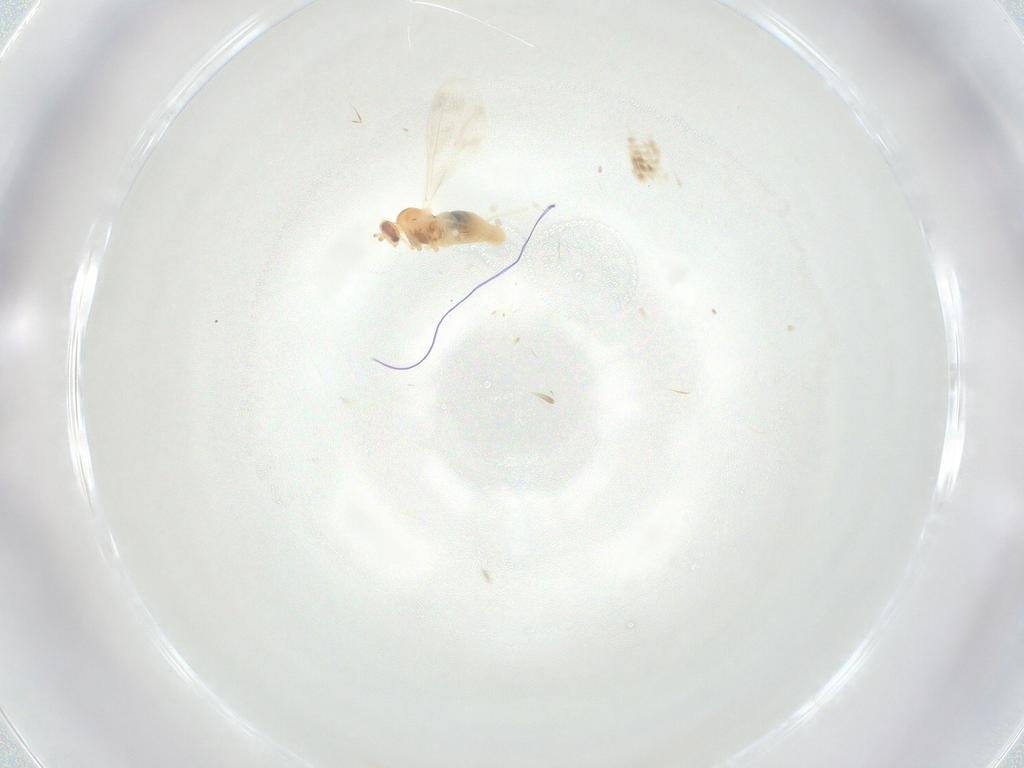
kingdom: Animalia
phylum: Arthropoda
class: Insecta
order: Diptera
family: Cecidomyiidae
